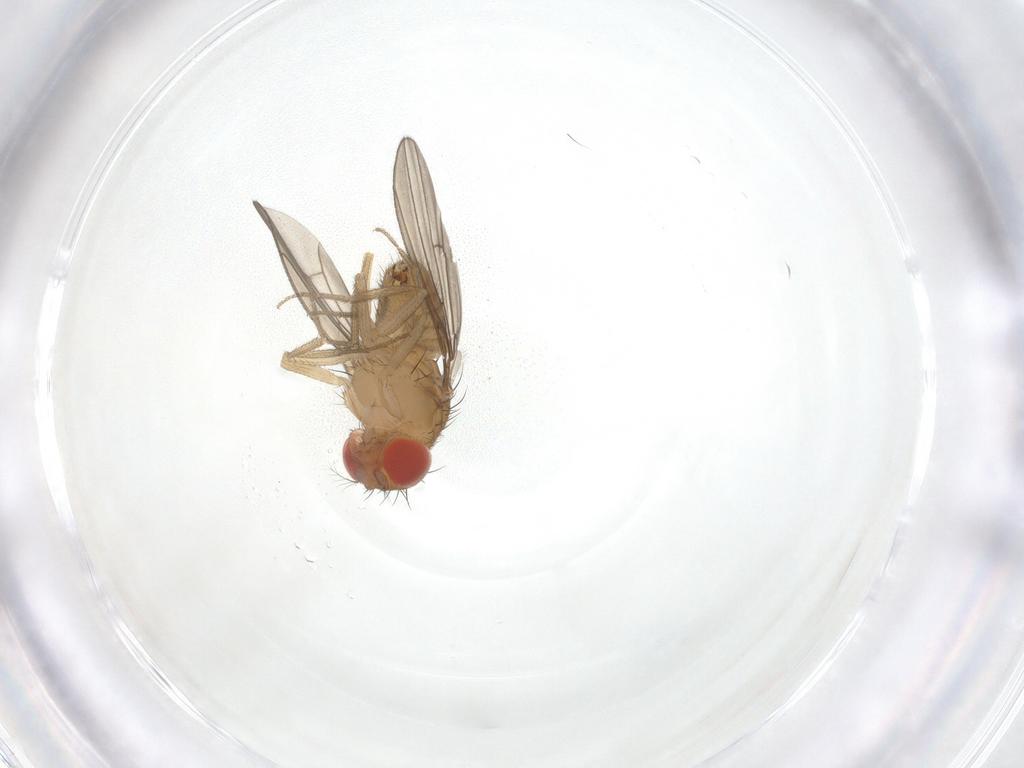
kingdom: Animalia
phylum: Arthropoda
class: Insecta
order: Diptera
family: Drosophilidae
